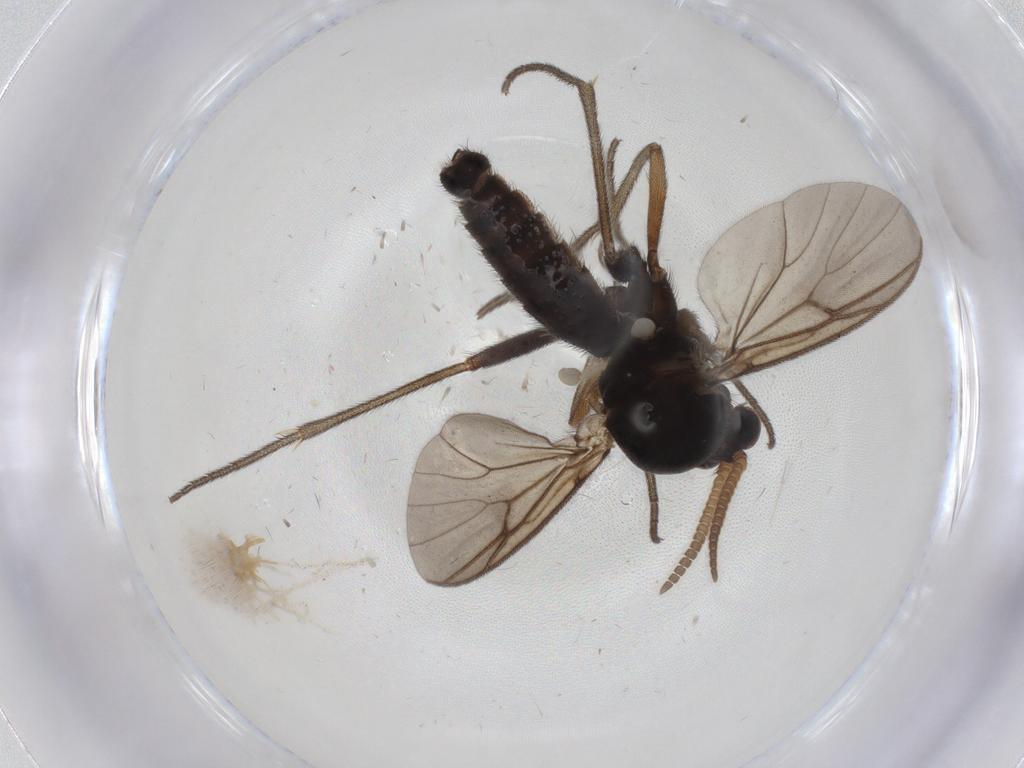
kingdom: Animalia
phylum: Arthropoda
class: Insecta
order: Diptera
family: Mycetophilidae
